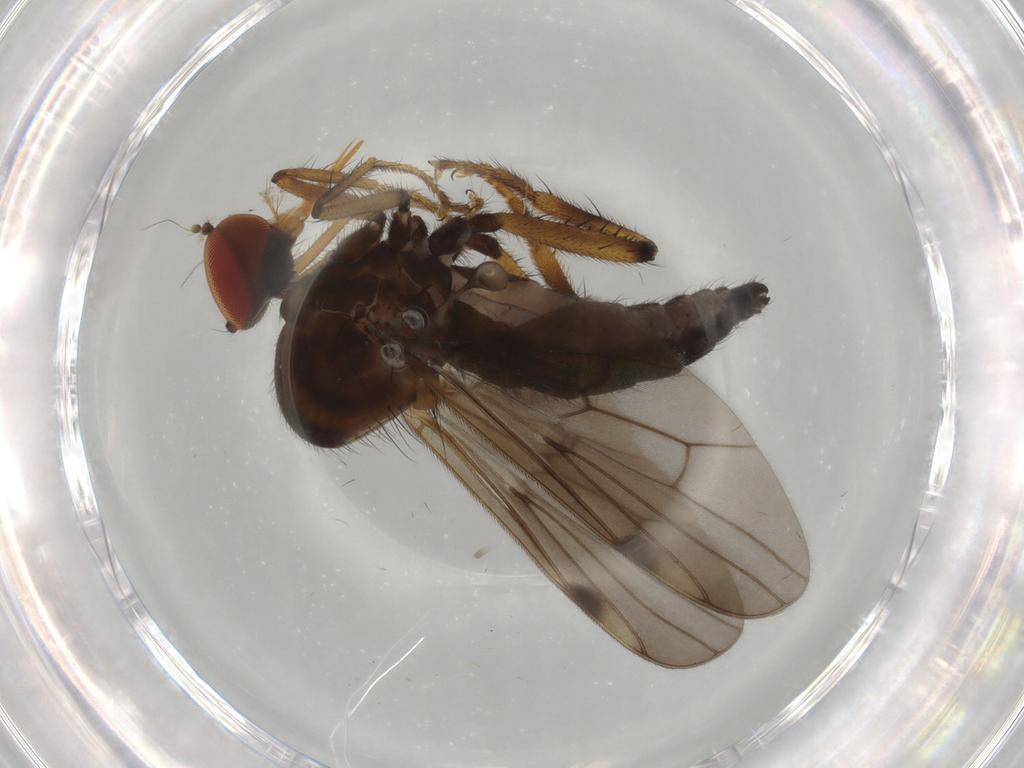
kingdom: Animalia
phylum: Arthropoda
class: Insecta
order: Diptera
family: Hybotidae
